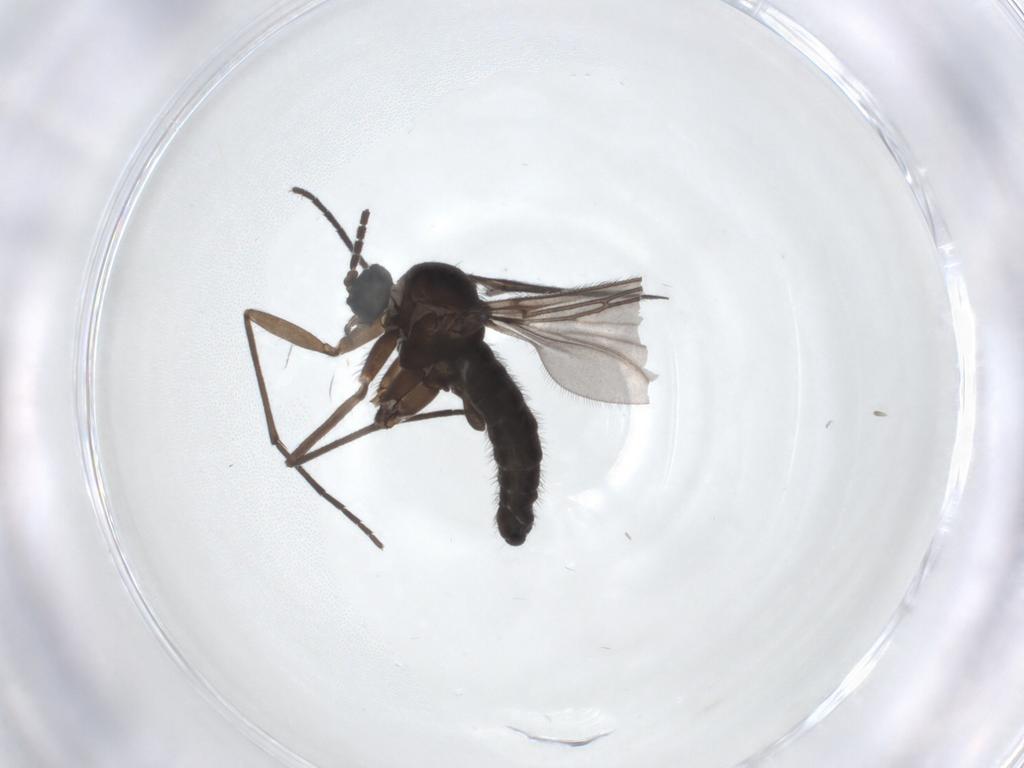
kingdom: Animalia
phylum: Arthropoda
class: Insecta
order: Diptera
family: Sciaridae
